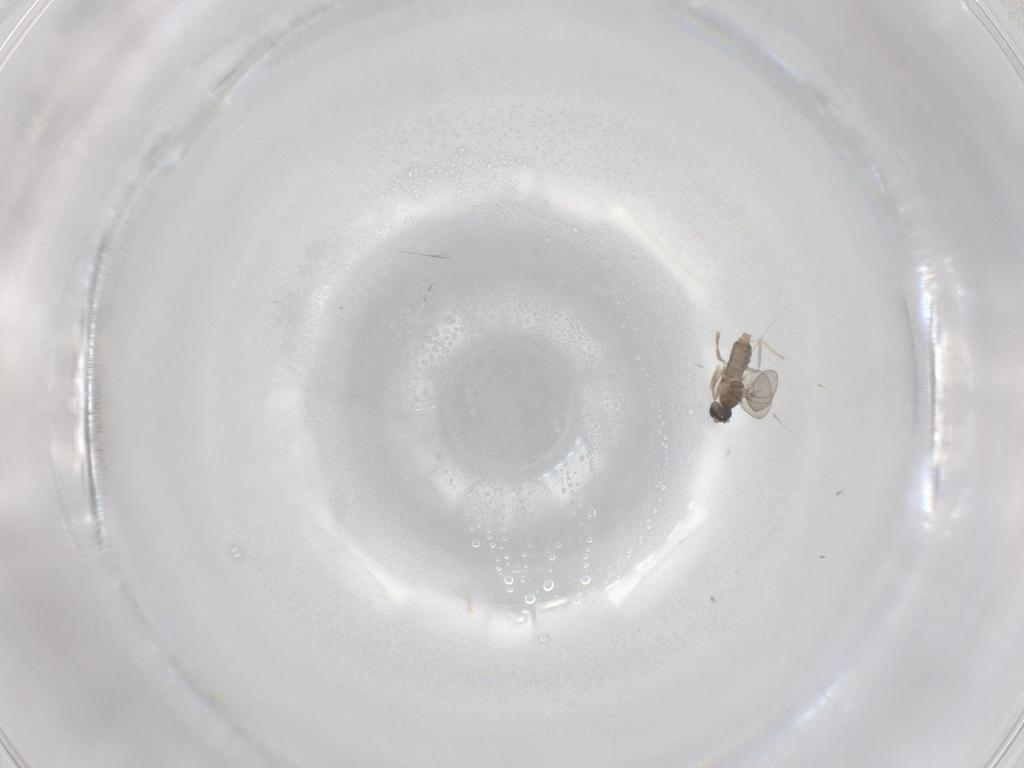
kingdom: Animalia
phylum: Arthropoda
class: Insecta
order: Diptera
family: Cecidomyiidae
